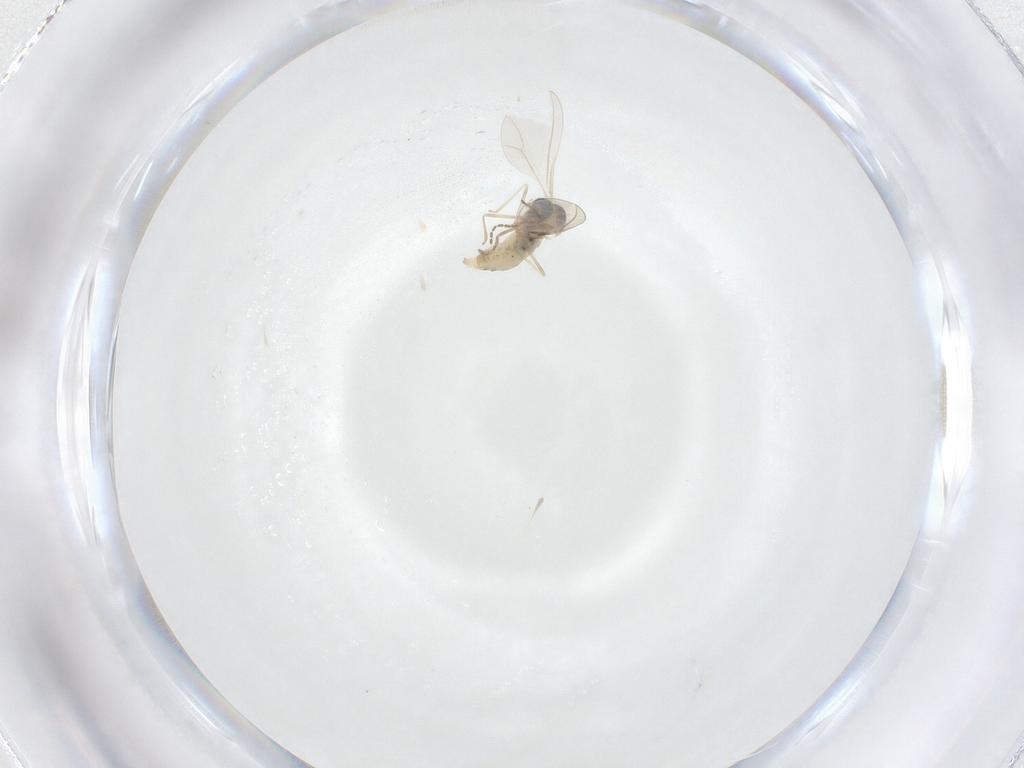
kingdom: Animalia
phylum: Arthropoda
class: Insecta
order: Diptera
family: Cecidomyiidae
